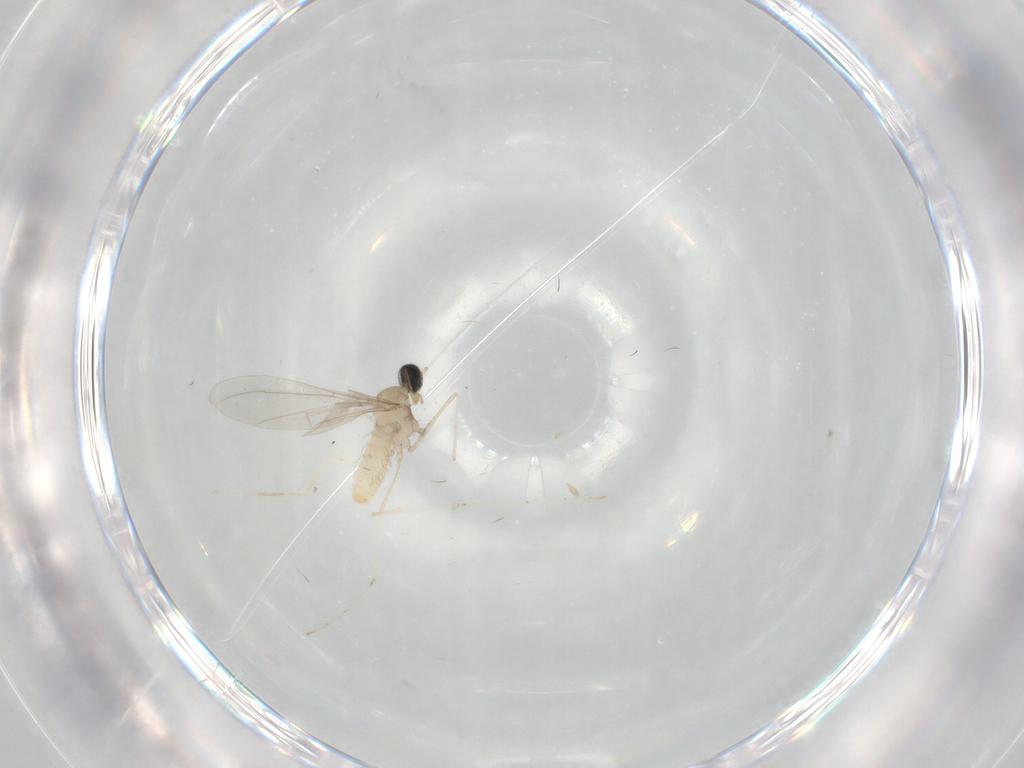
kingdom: Animalia
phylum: Arthropoda
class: Insecta
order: Diptera
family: Cecidomyiidae
